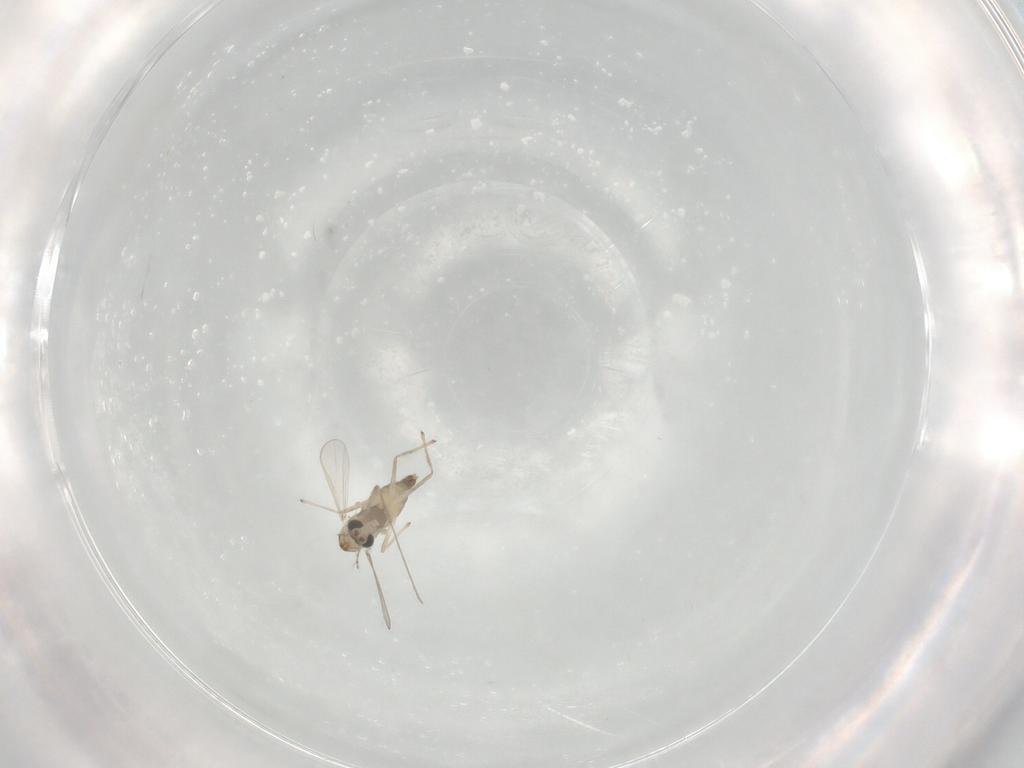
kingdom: Animalia
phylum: Arthropoda
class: Insecta
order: Diptera
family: Chironomidae
